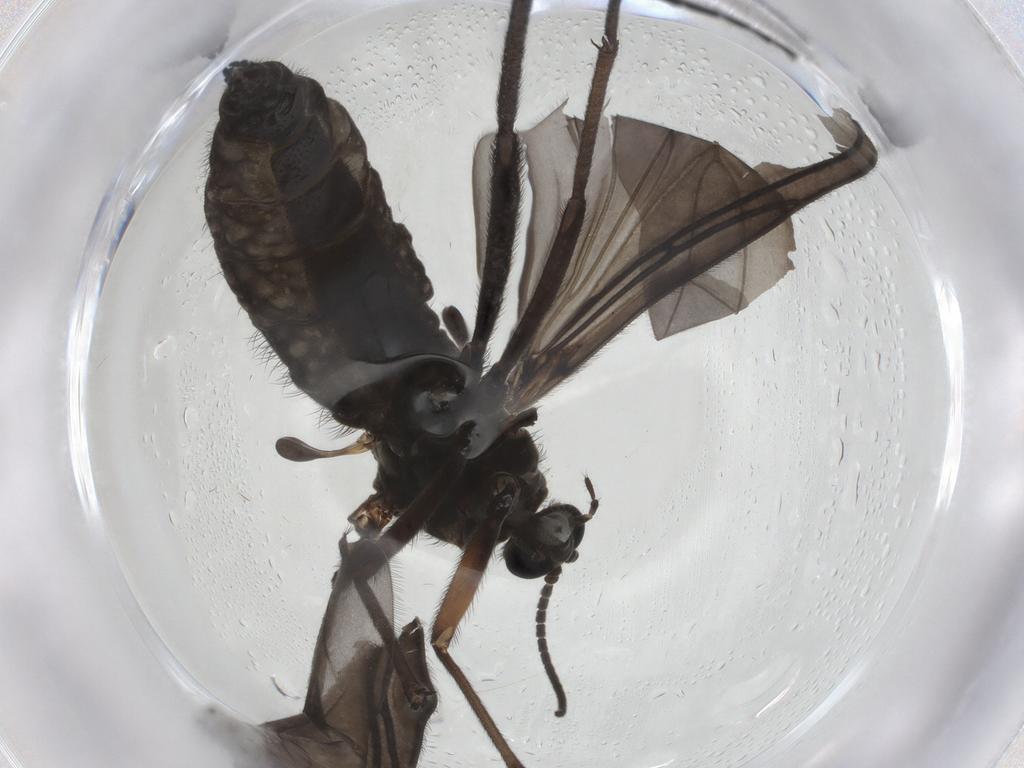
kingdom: Animalia
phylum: Arthropoda
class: Insecta
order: Diptera
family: Sciaridae
